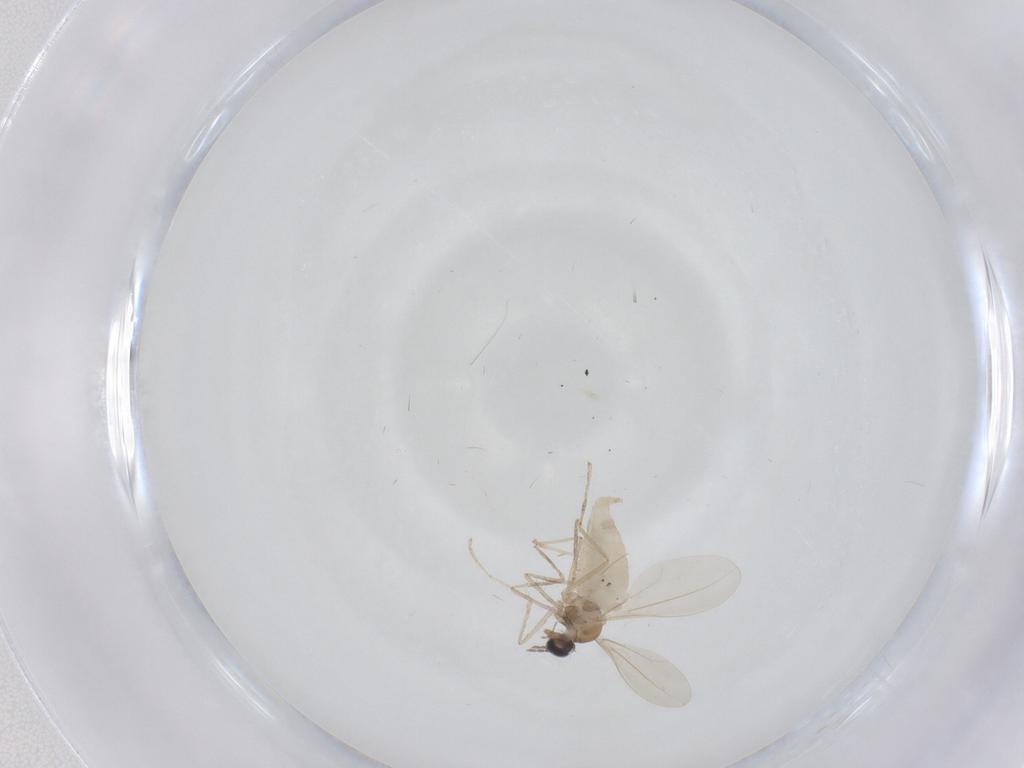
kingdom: Animalia
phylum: Arthropoda
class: Insecta
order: Diptera
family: Cecidomyiidae
